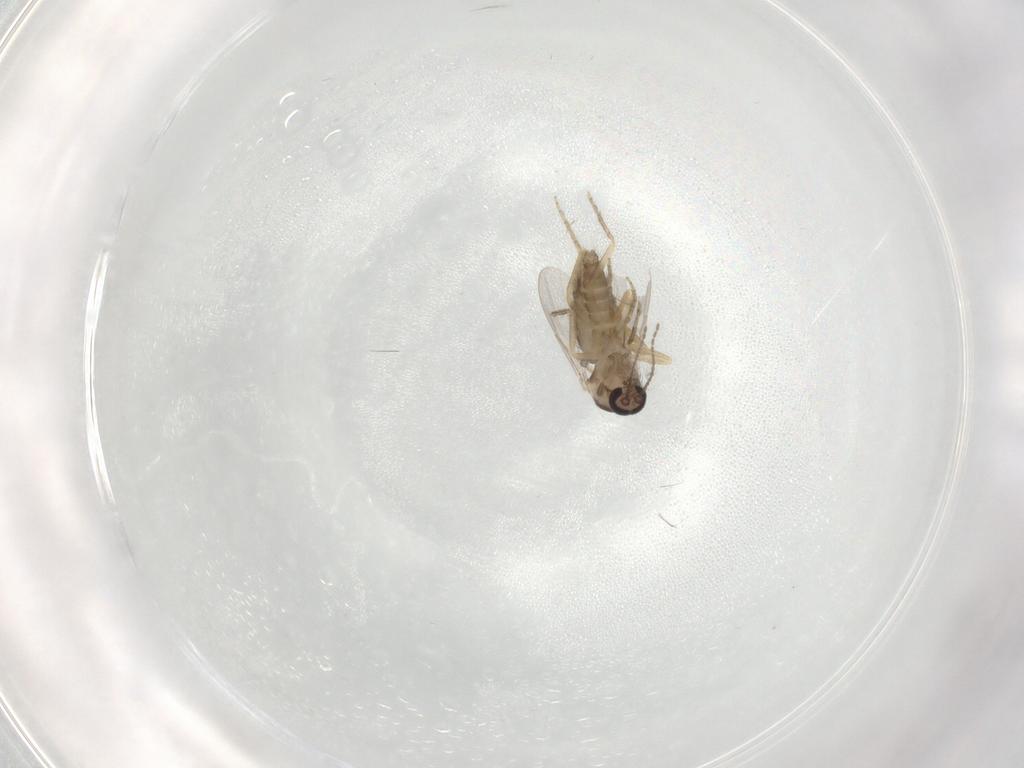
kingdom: Animalia
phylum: Arthropoda
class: Insecta
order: Diptera
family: Ceratopogonidae
